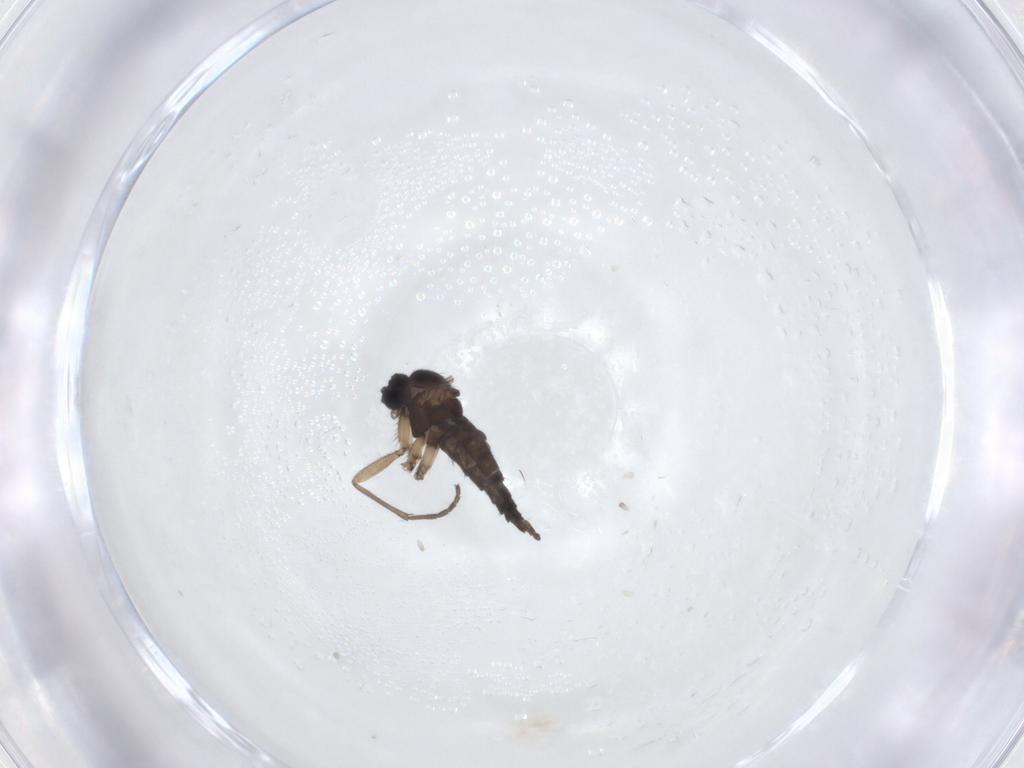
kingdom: Animalia
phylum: Arthropoda
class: Insecta
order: Diptera
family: Sciaridae
